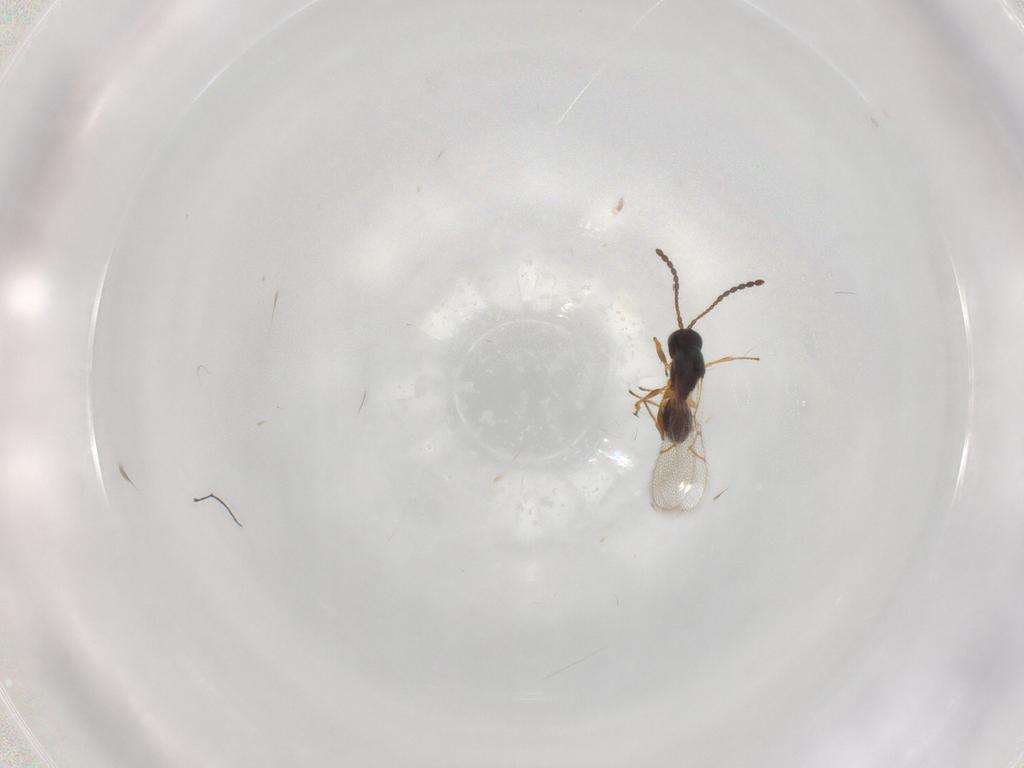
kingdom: Animalia
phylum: Arthropoda
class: Insecta
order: Hymenoptera
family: Figitidae
